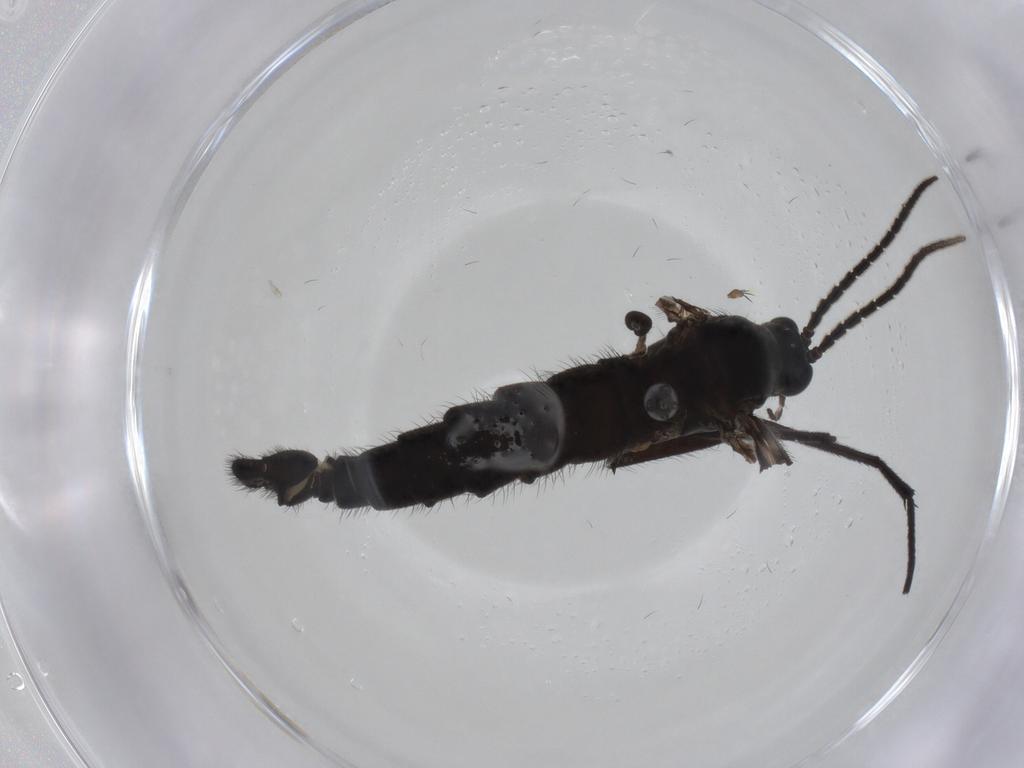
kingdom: Animalia
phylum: Arthropoda
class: Insecta
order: Diptera
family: Sciaridae
